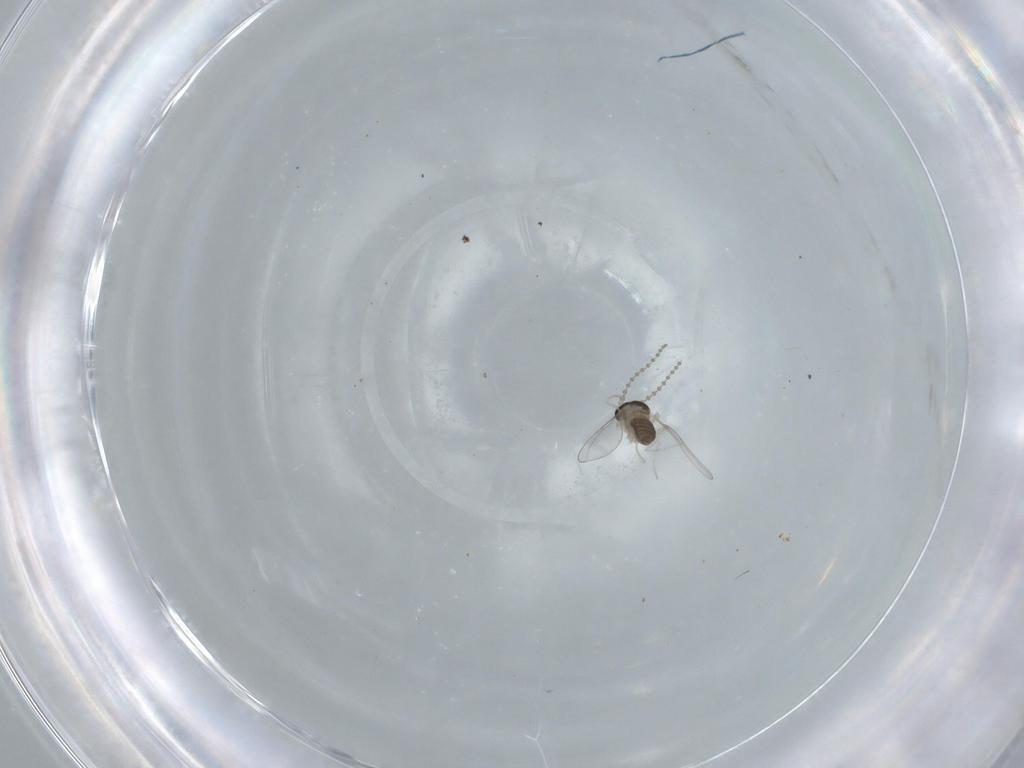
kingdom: Animalia
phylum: Arthropoda
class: Insecta
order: Diptera
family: Cecidomyiidae
